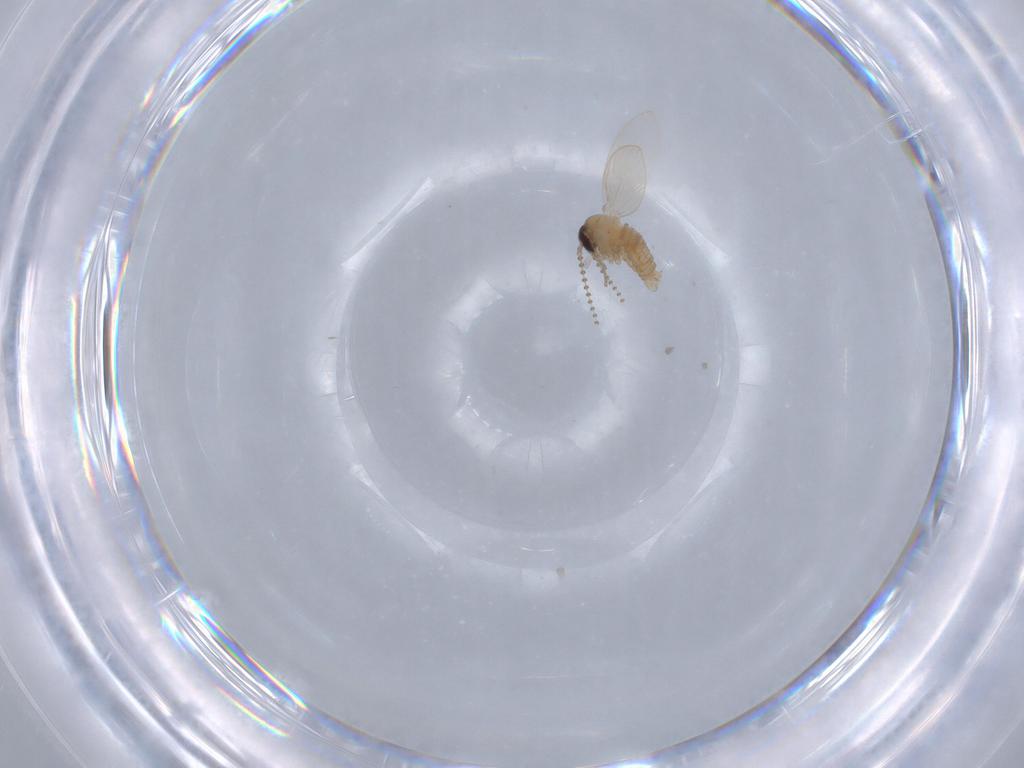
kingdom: Animalia
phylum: Arthropoda
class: Insecta
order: Diptera
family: Psychodidae
